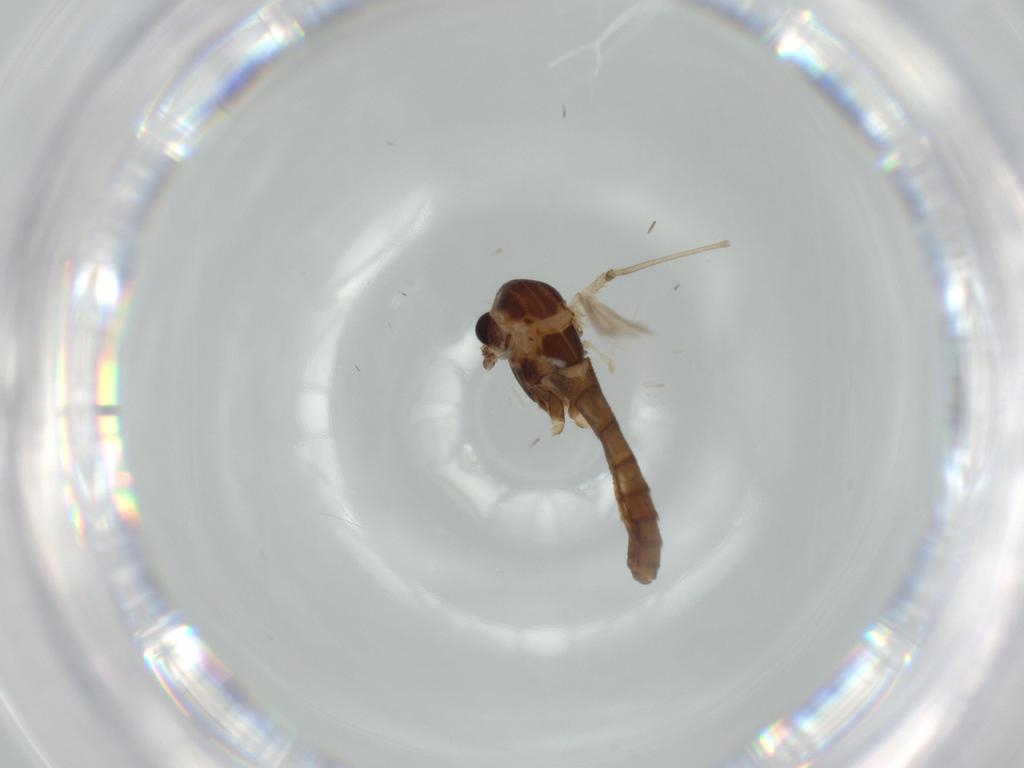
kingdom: Animalia
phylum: Arthropoda
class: Insecta
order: Diptera
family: Chironomidae
